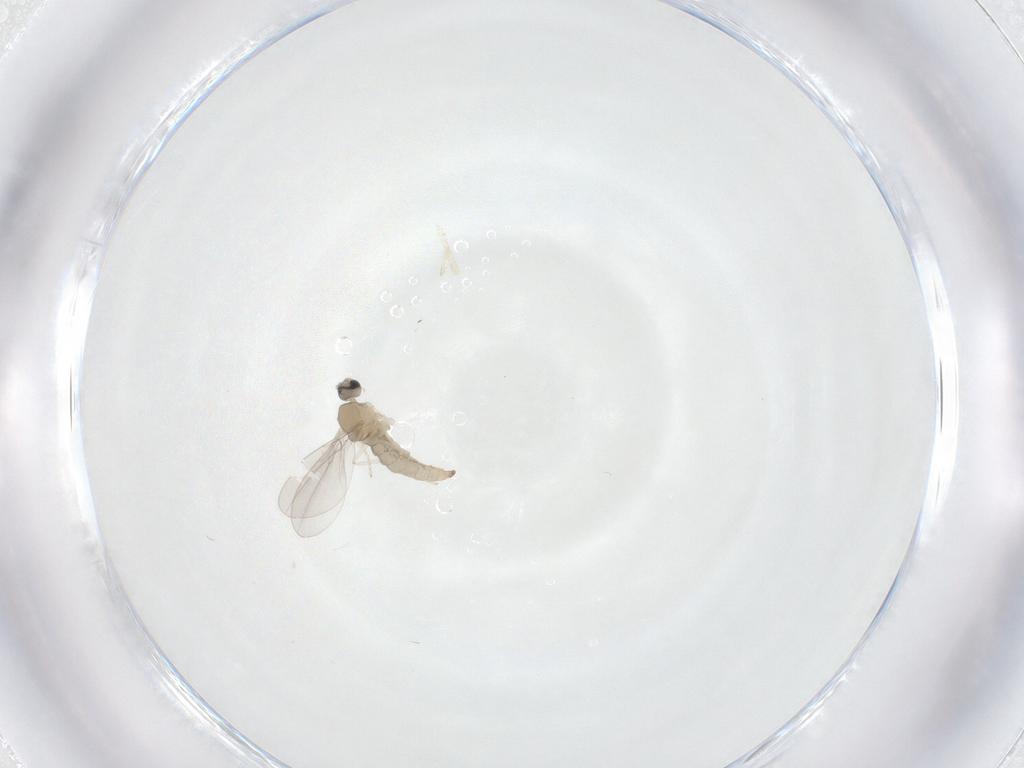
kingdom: Animalia
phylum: Arthropoda
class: Insecta
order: Diptera
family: Cecidomyiidae
